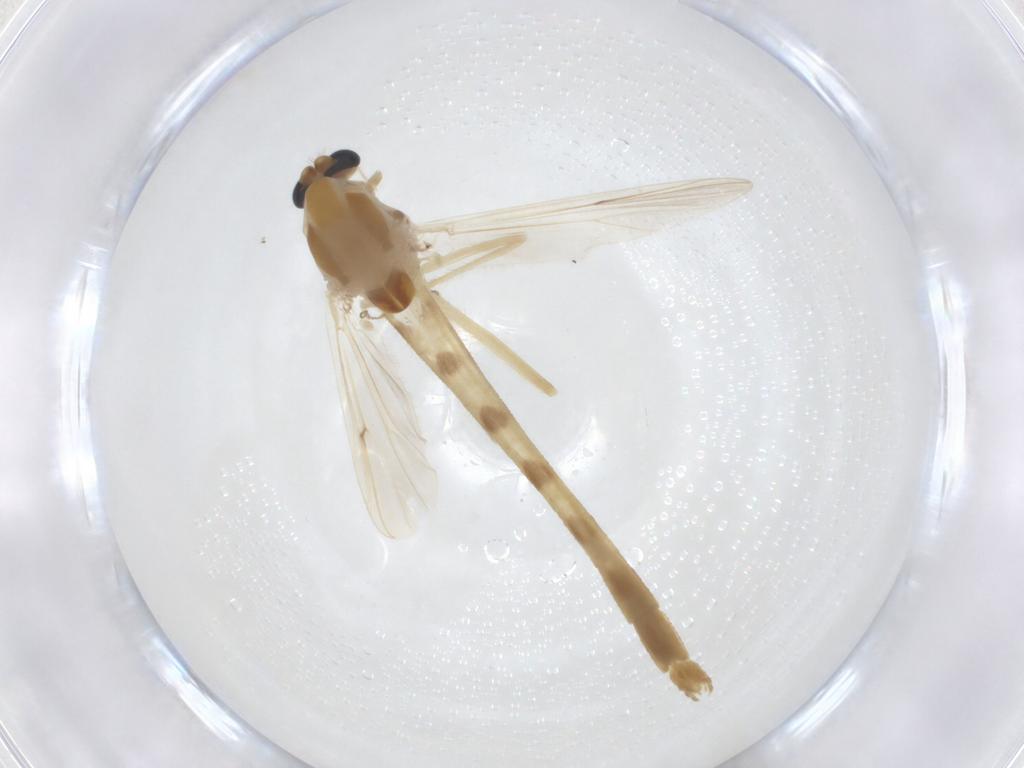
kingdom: Animalia
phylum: Arthropoda
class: Insecta
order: Diptera
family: Chironomidae
